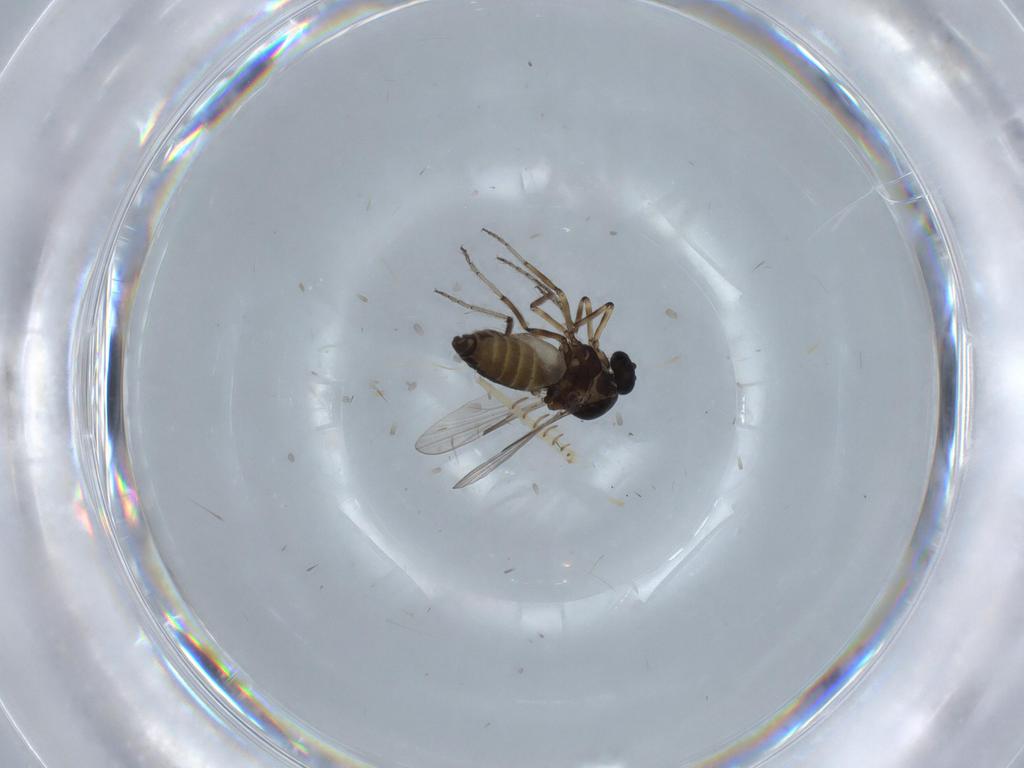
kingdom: Animalia
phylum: Arthropoda
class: Insecta
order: Diptera
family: Ceratopogonidae
